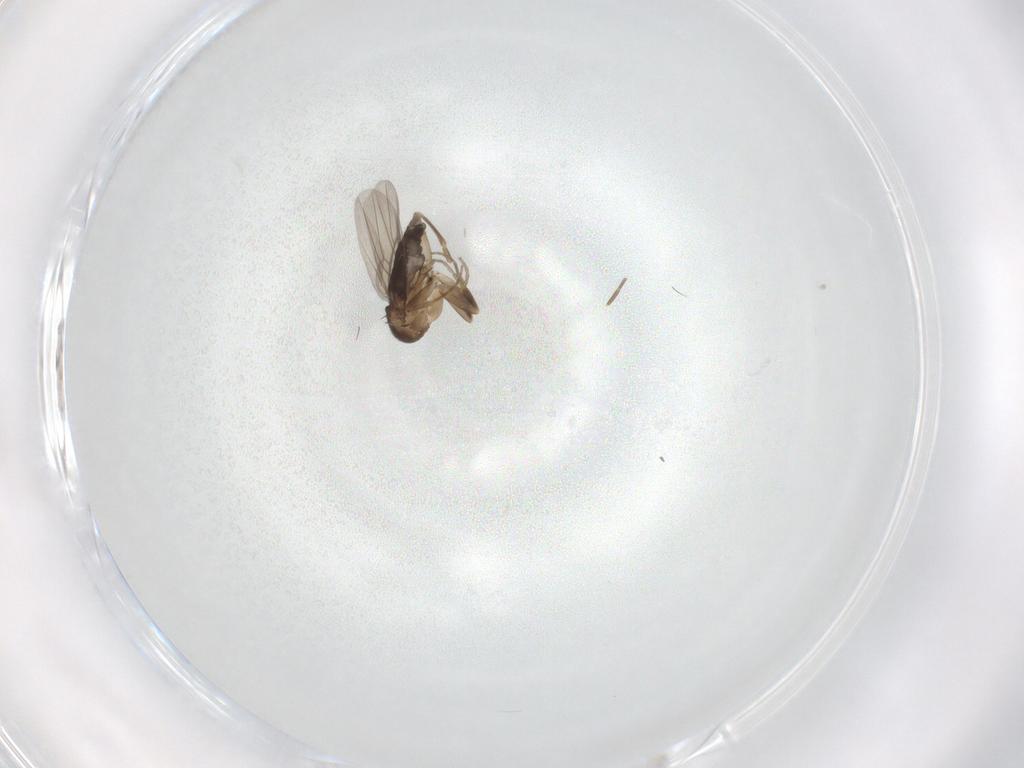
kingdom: Animalia
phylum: Arthropoda
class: Insecta
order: Diptera
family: Phoridae
